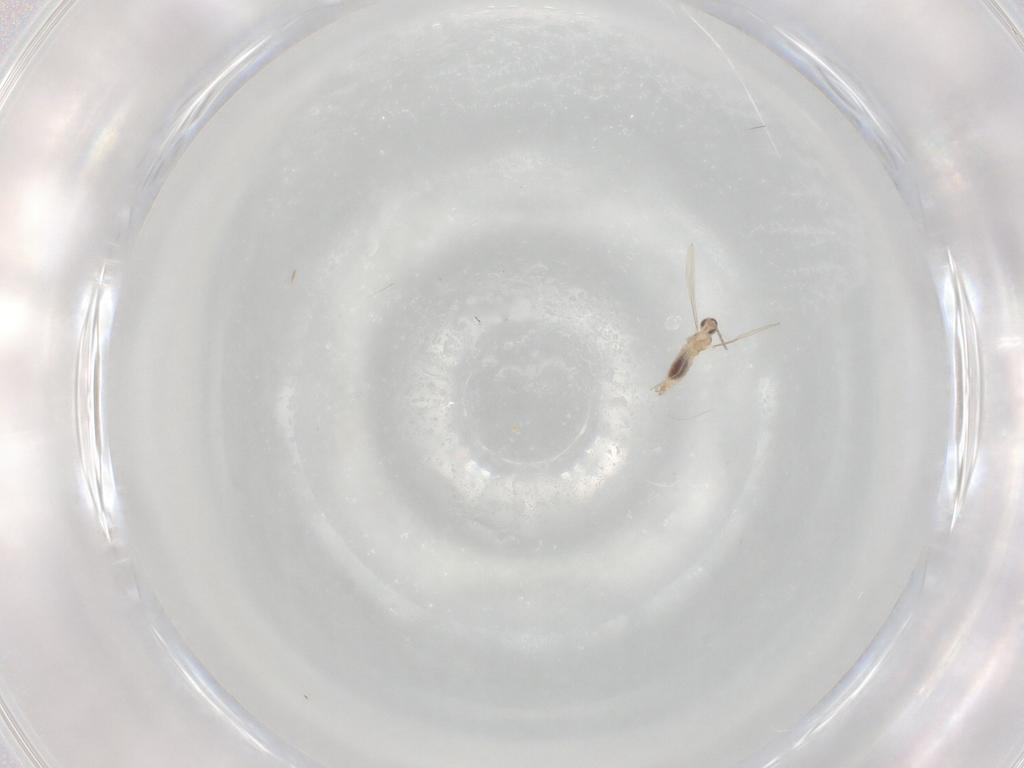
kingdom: Animalia
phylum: Arthropoda
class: Insecta
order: Diptera
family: Cecidomyiidae
